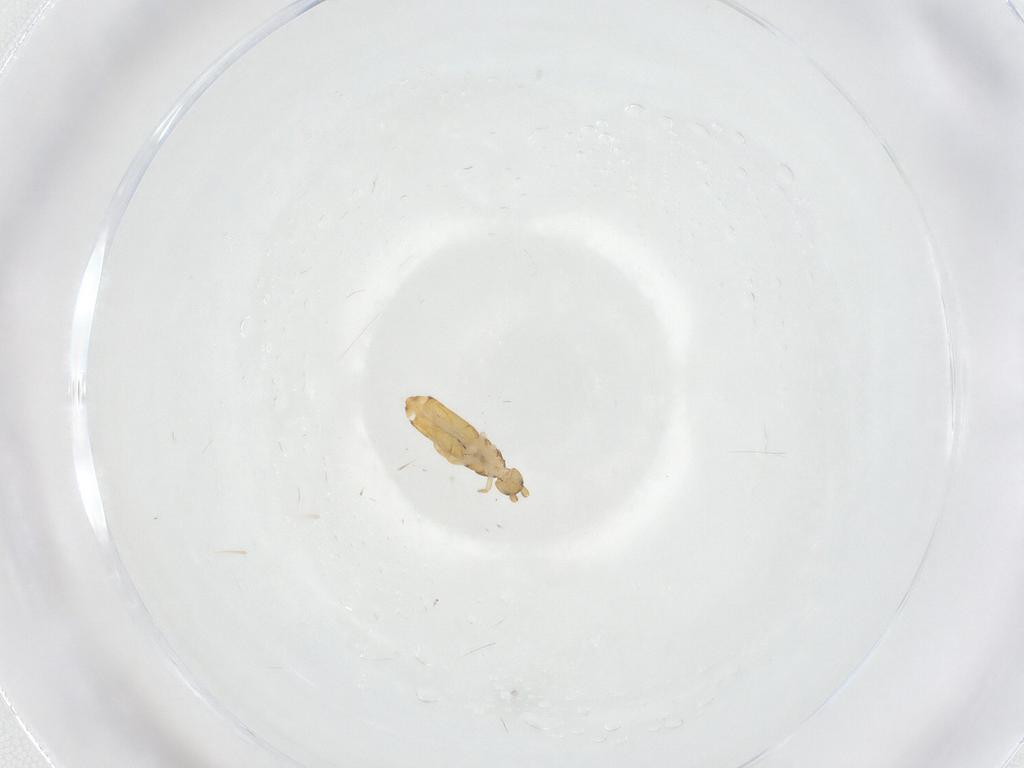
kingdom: Animalia
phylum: Arthropoda
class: Collembola
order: Entomobryomorpha
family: Entomobryidae
